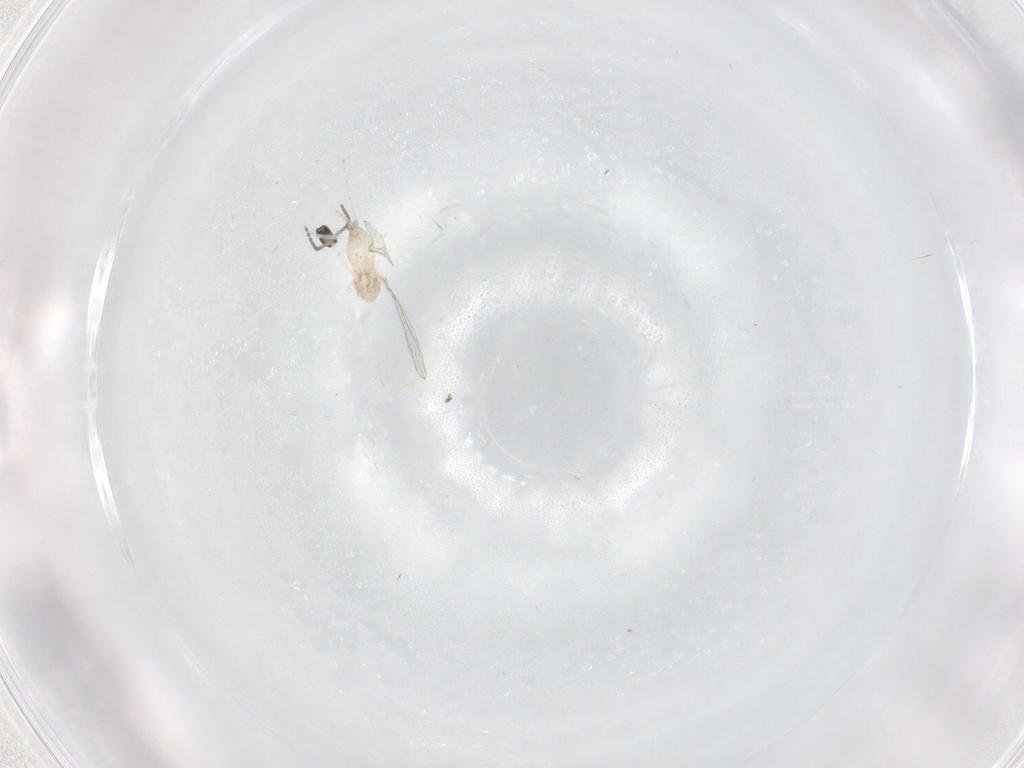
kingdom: Animalia
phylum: Arthropoda
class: Insecta
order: Diptera
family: Cecidomyiidae
